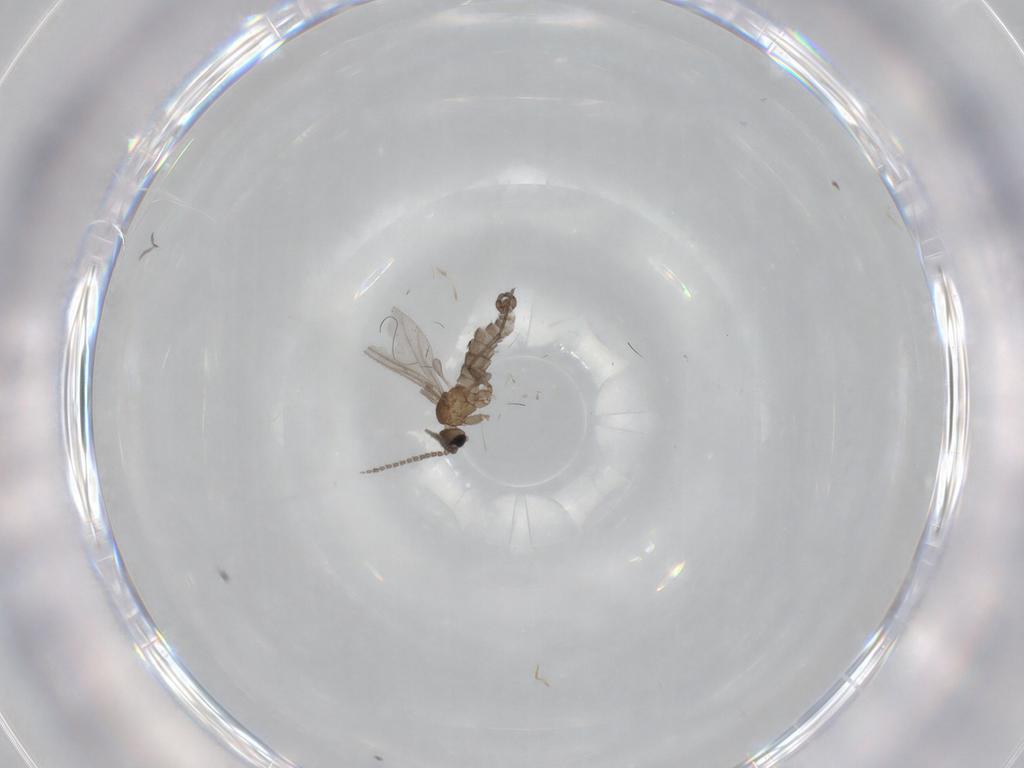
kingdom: Animalia
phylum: Arthropoda
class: Insecta
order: Diptera
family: Sciaridae
